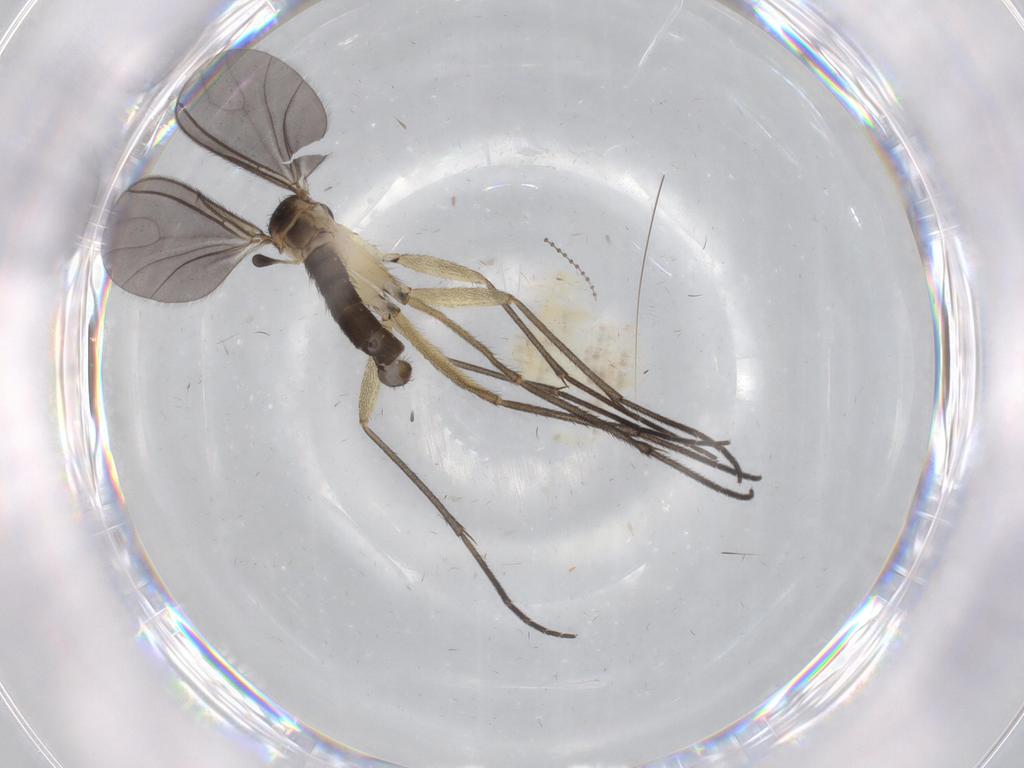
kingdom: Animalia
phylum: Arthropoda
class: Insecta
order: Diptera
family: Sciaridae
